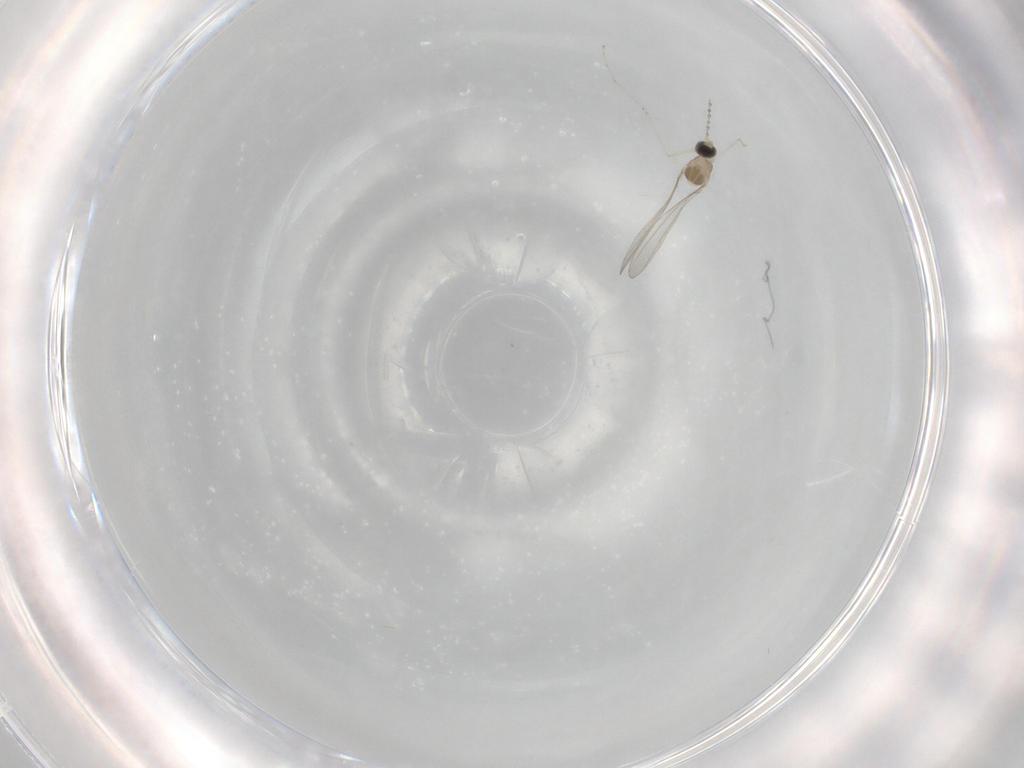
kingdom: Animalia
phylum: Arthropoda
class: Insecta
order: Diptera
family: Cecidomyiidae
